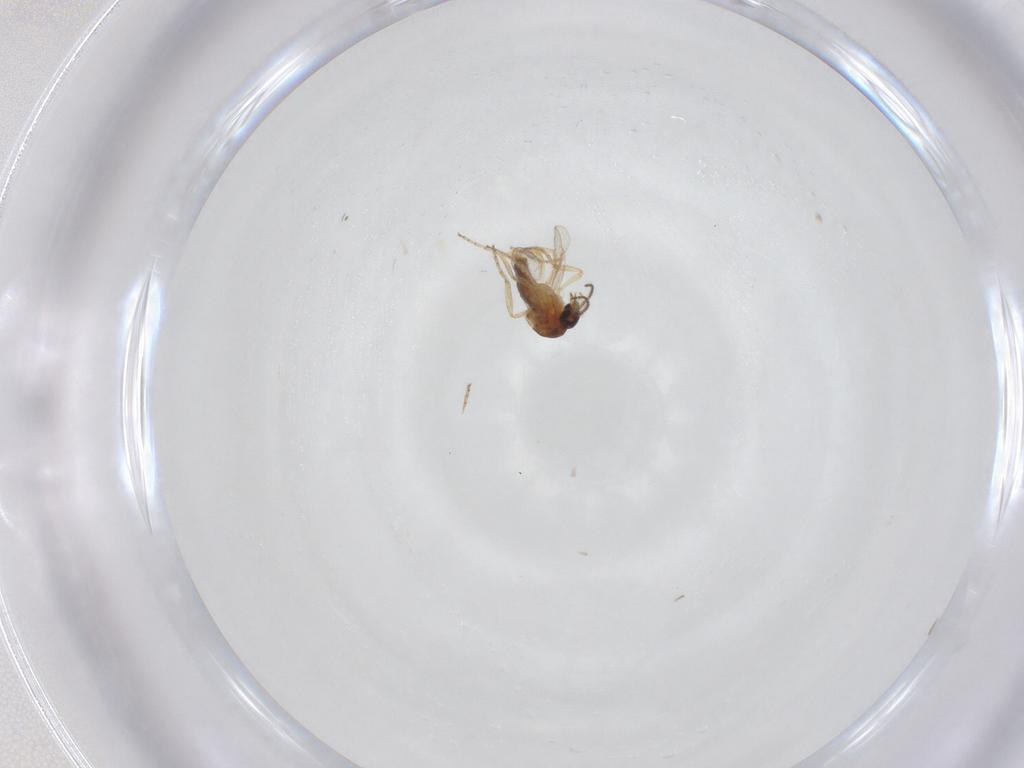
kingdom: Animalia
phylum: Arthropoda
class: Insecta
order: Diptera
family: Ceratopogonidae
